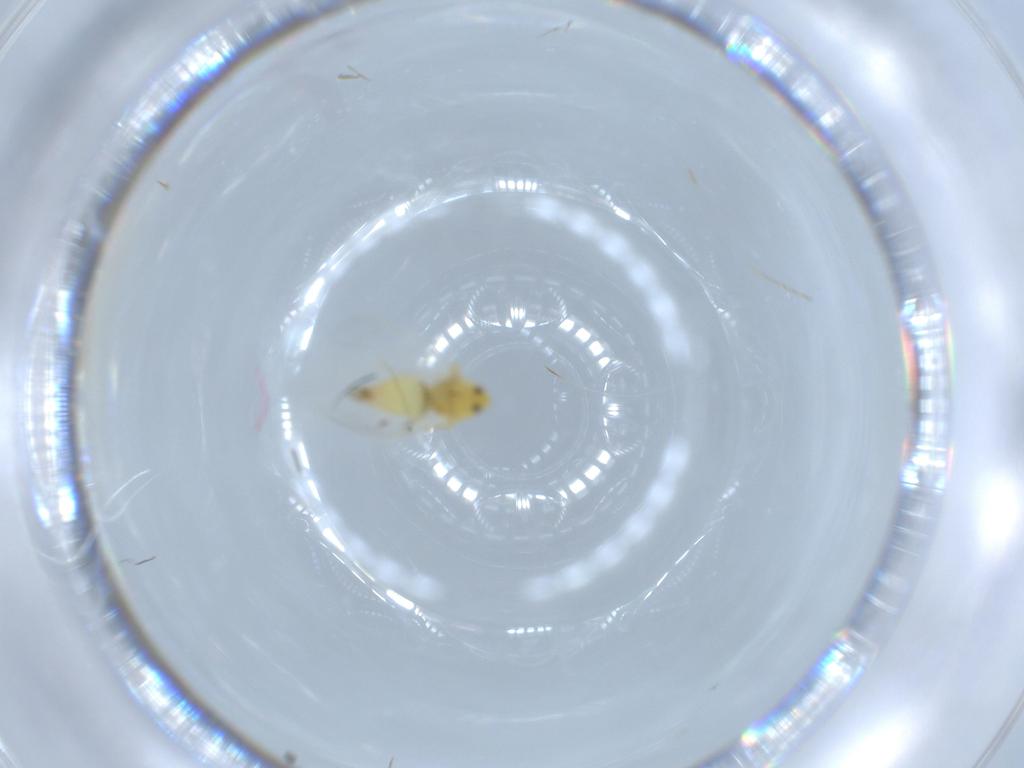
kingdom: Animalia
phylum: Arthropoda
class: Insecta
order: Hemiptera
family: Aleyrodidae
